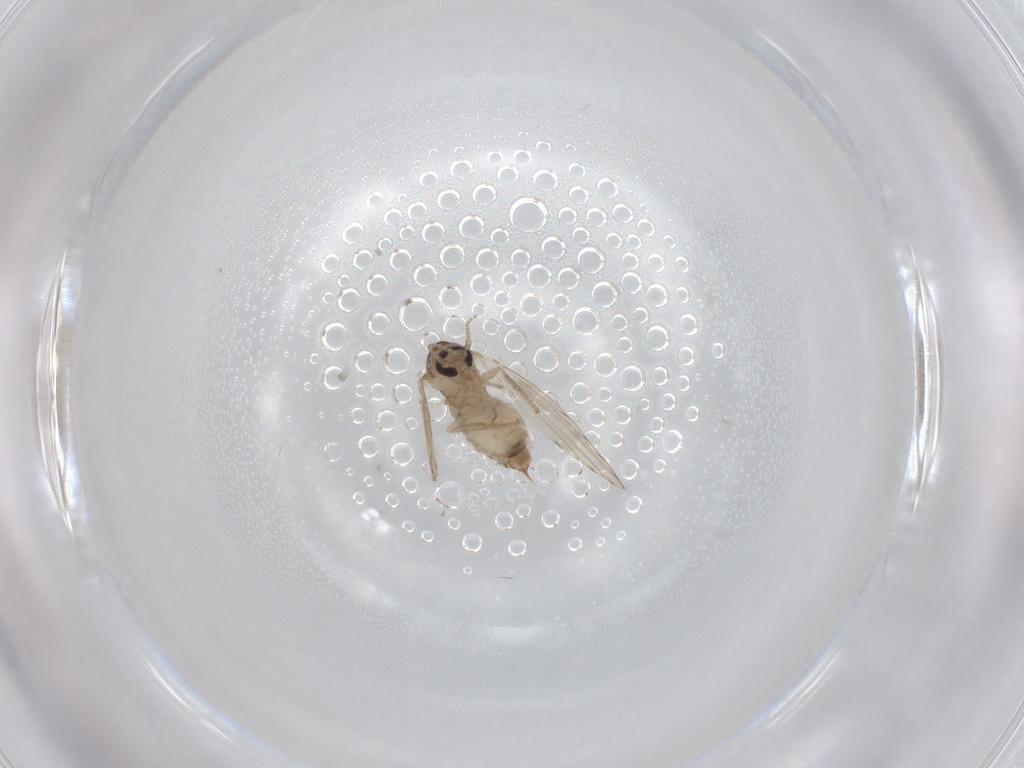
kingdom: Animalia
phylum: Arthropoda
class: Insecta
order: Diptera
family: Psychodidae
